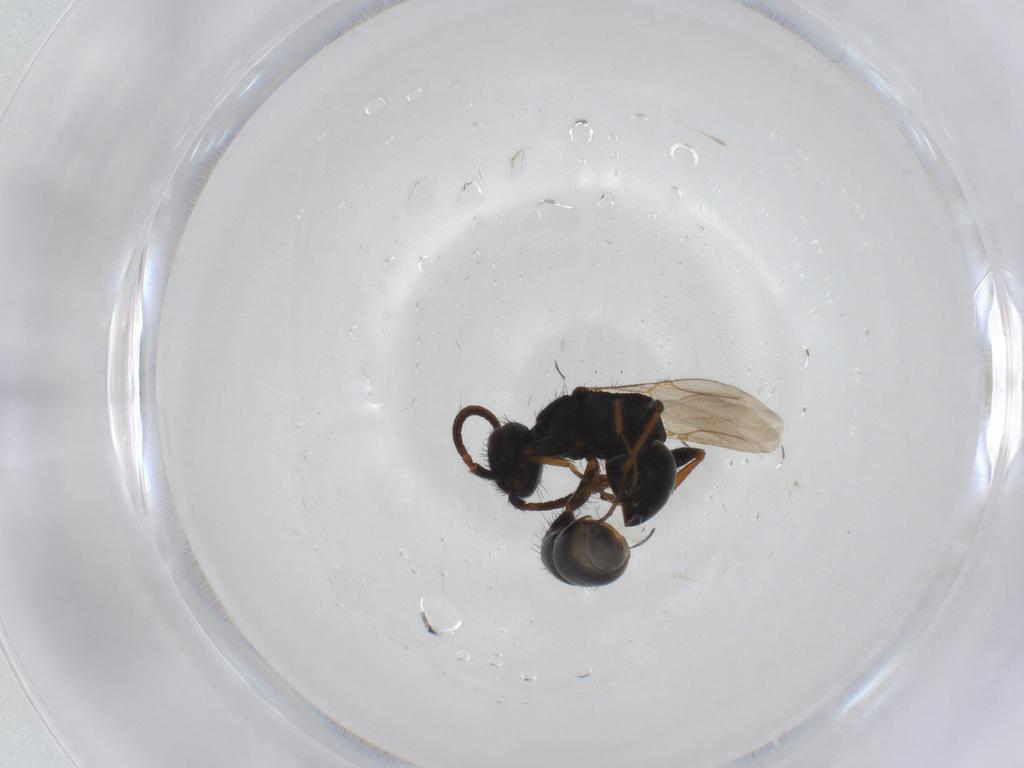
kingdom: Animalia
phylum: Arthropoda
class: Insecta
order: Hymenoptera
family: Bethylidae
